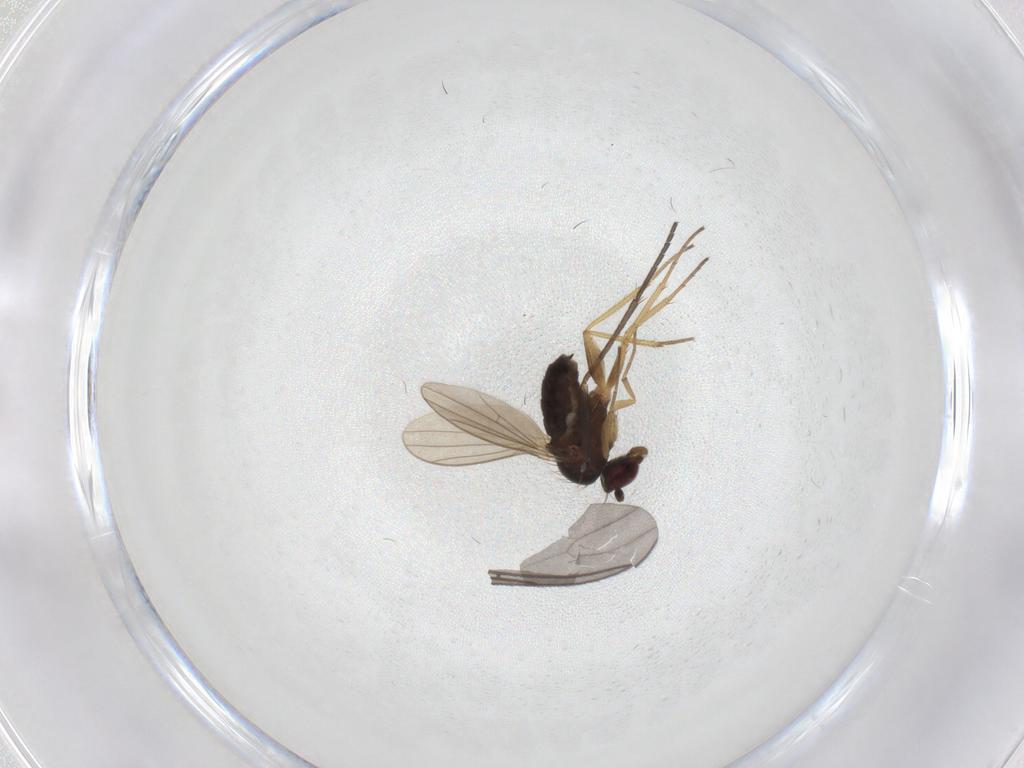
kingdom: Animalia
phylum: Arthropoda
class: Insecta
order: Diptera
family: Dolichopodidae
